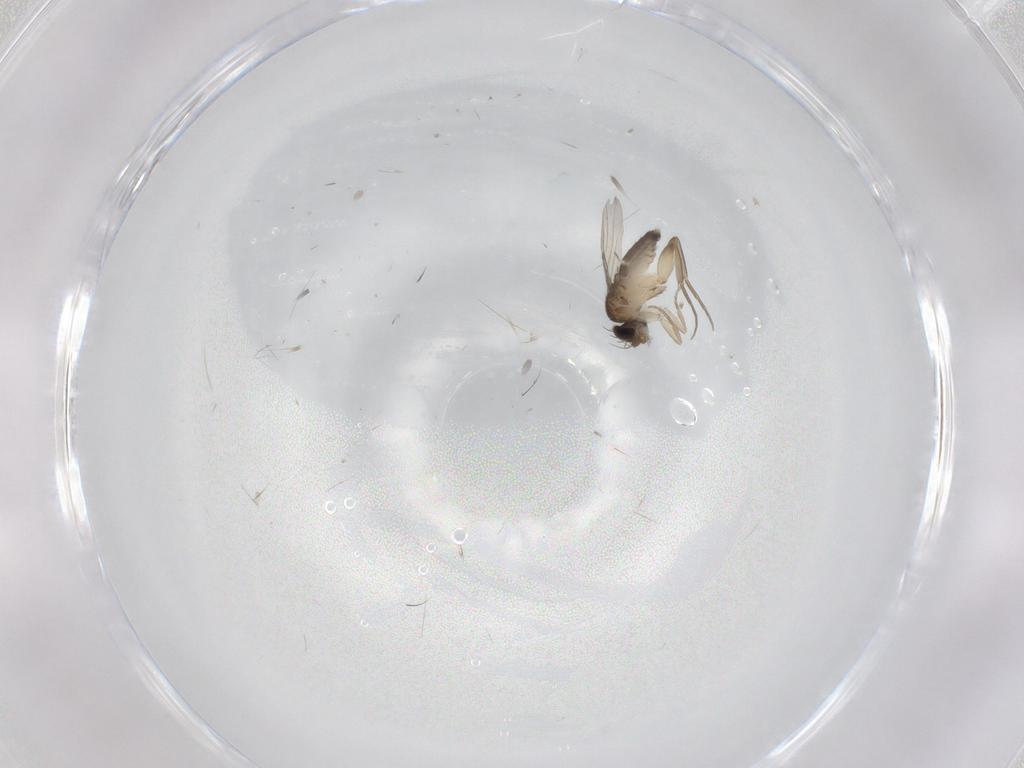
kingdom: Animalia
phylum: Arthropoda
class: Insecta
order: Diptera
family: Phoridae
